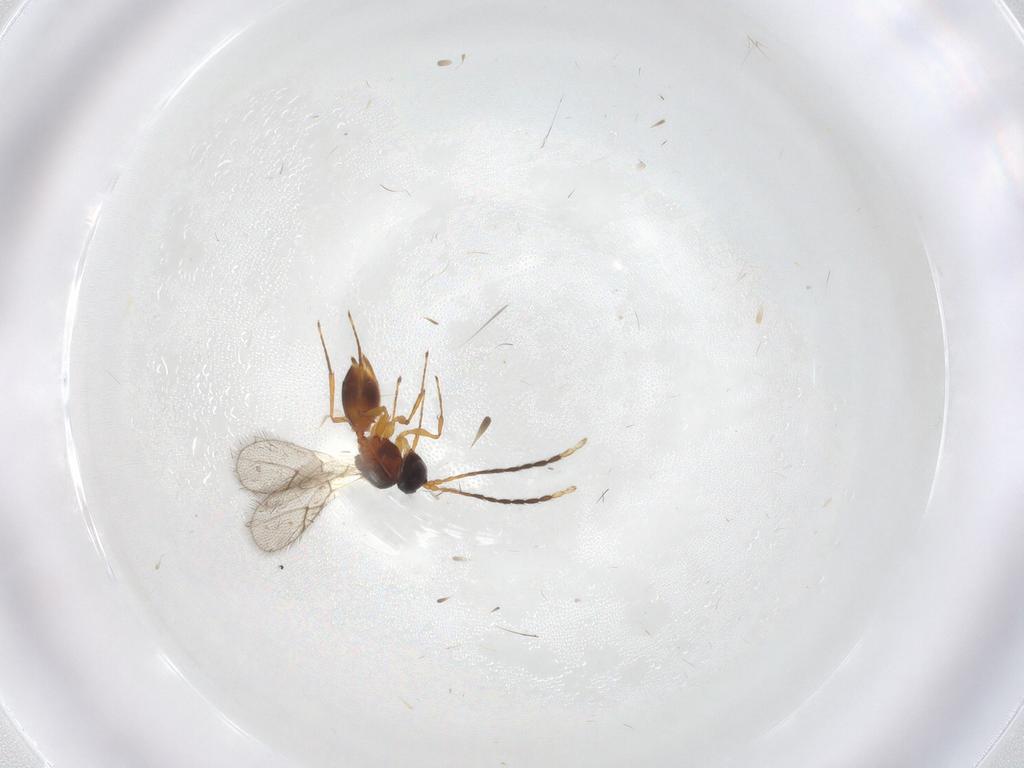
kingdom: Animalia
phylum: Arthropoda
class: Insecta
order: Hymenoptera
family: Figitidae
